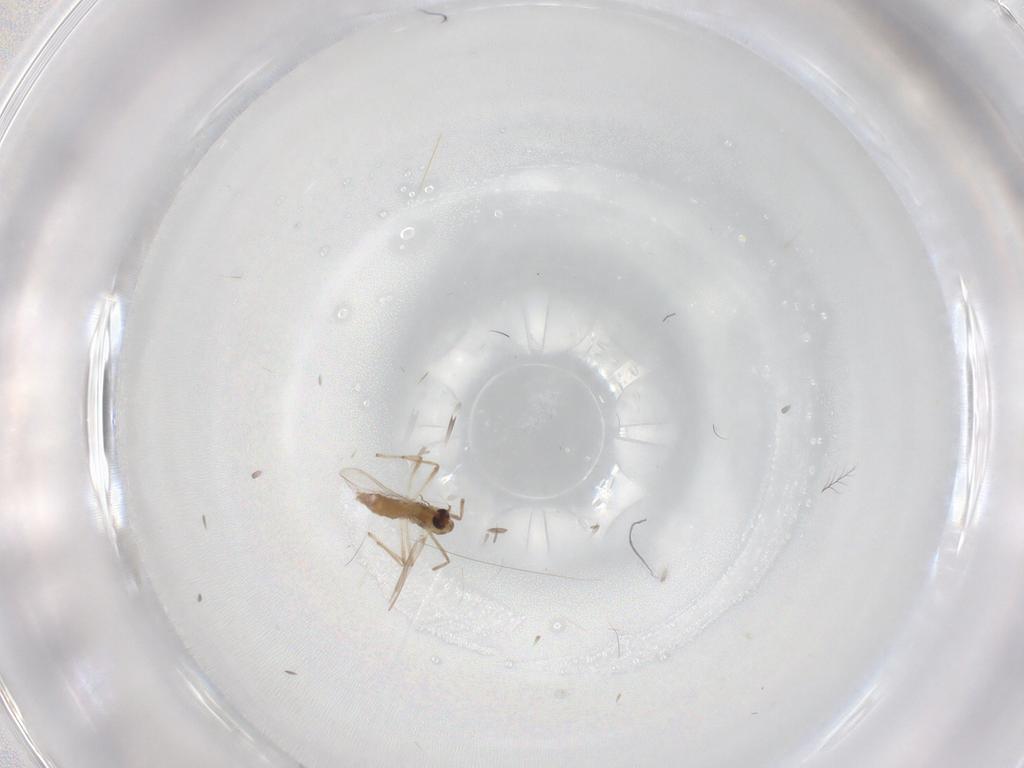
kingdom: Animalia
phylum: Arthropoda
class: Insecta
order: Diptera
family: Chironomidae
